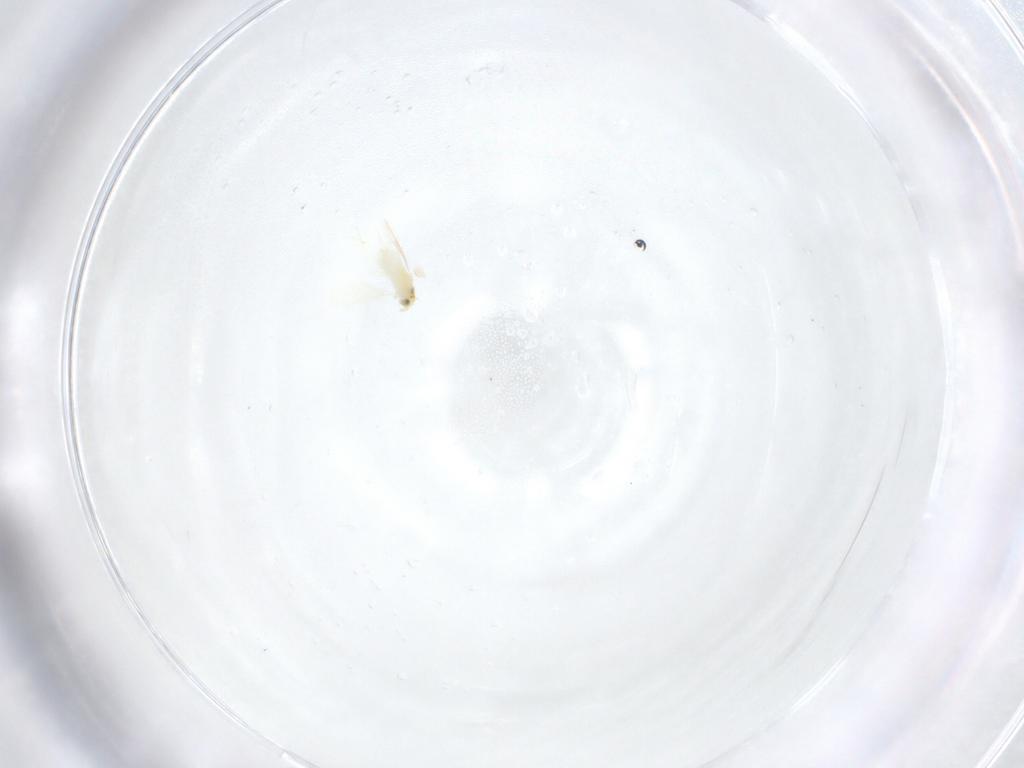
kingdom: Animalia
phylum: Arthropoda
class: Insecta
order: Hymenoptera
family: Aphelinidae
